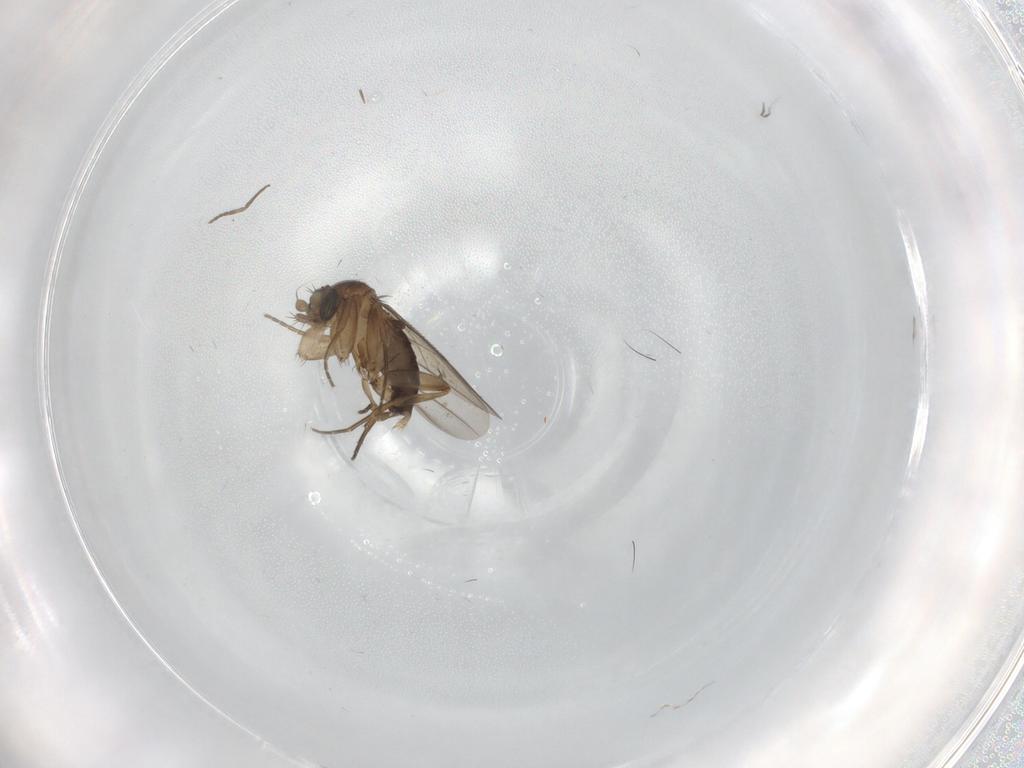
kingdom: Animalia
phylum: Arthropoda
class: Insecta
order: Diptera
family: Phoridae
